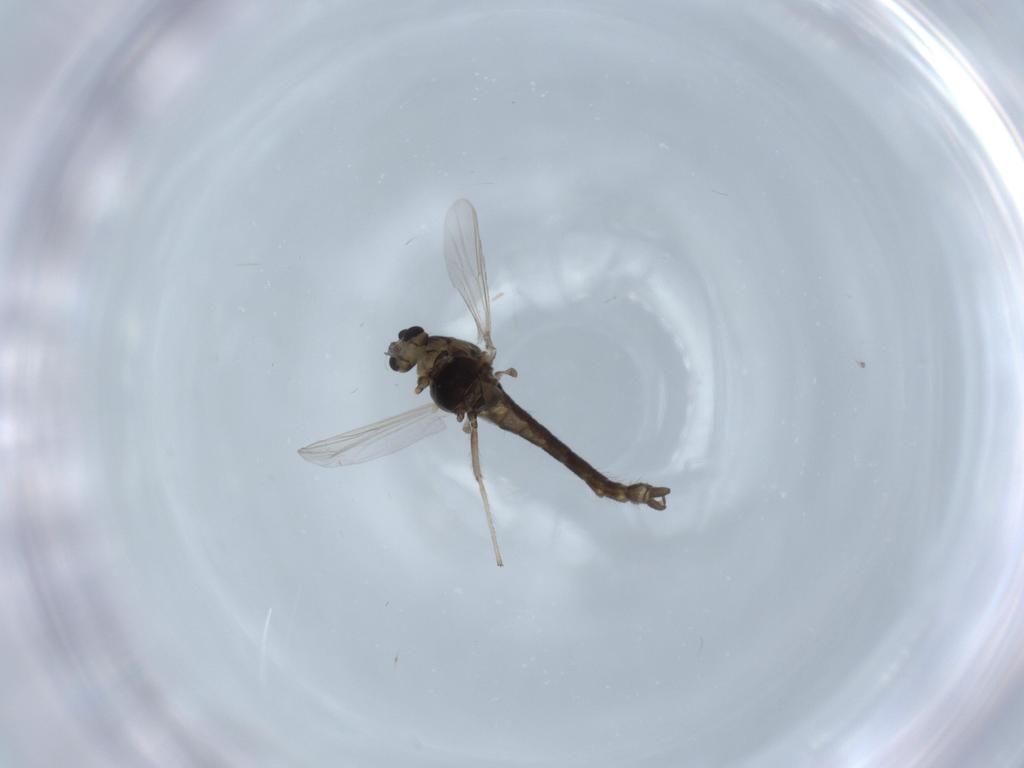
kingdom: Animalia
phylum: Arthropoda
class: Insecta
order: Diptera
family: Chironomidae
